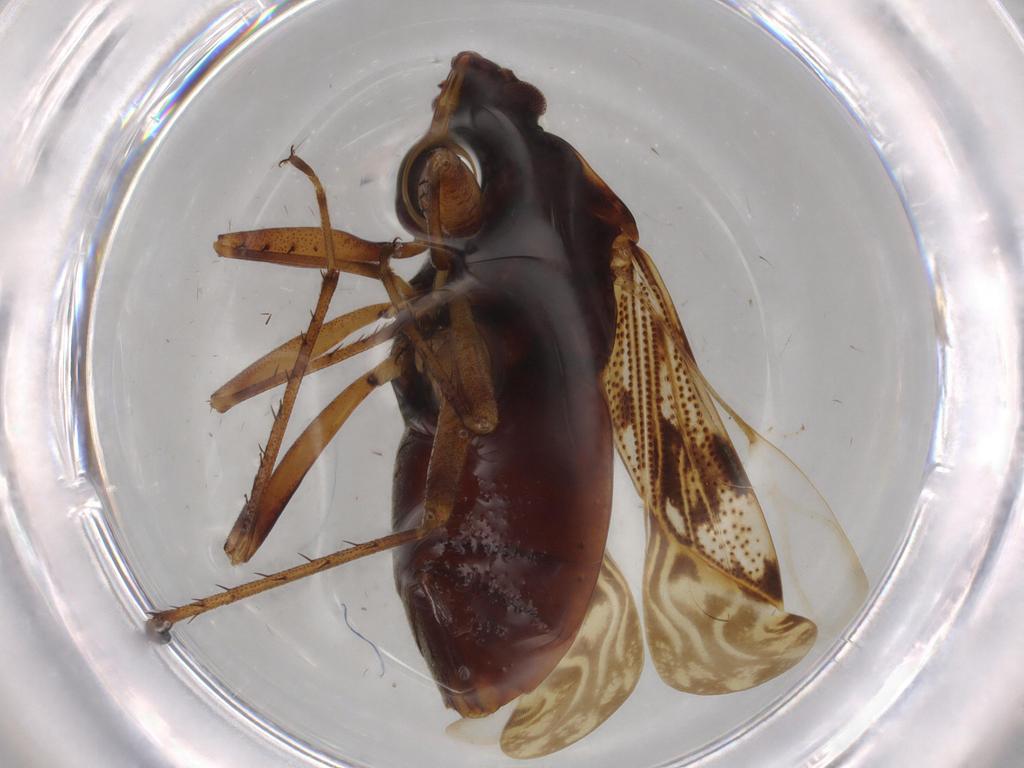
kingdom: Animalia
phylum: Arthropoda
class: Insecta
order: Hemiptera
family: Rhyparochromidae
